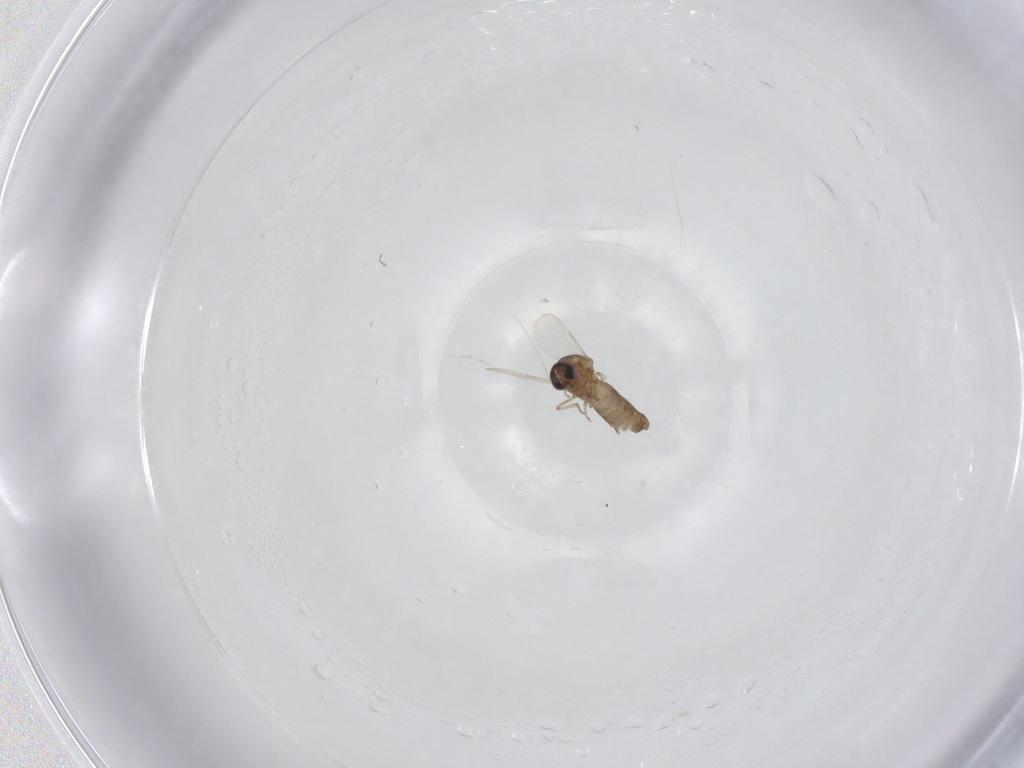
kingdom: Animalia
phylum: Arthropoda
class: Insecta
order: Diptera
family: Ceratopogonidae
